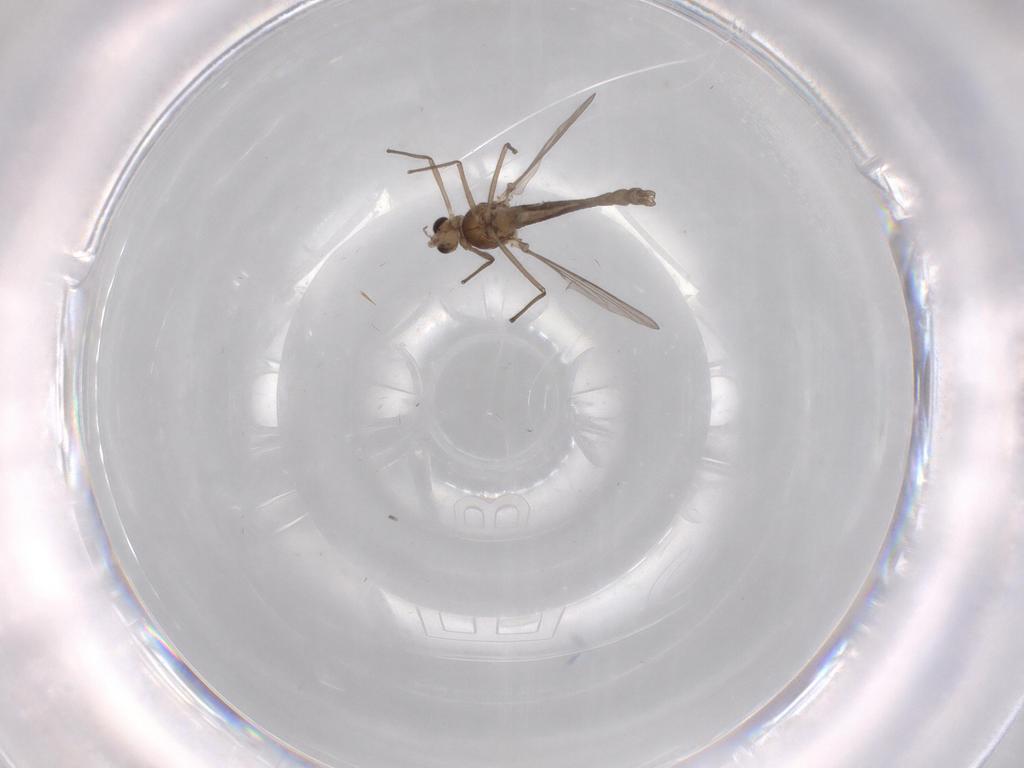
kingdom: Animalia
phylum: Arthropoda
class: Insecta
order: Diptera
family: Chironomidae
